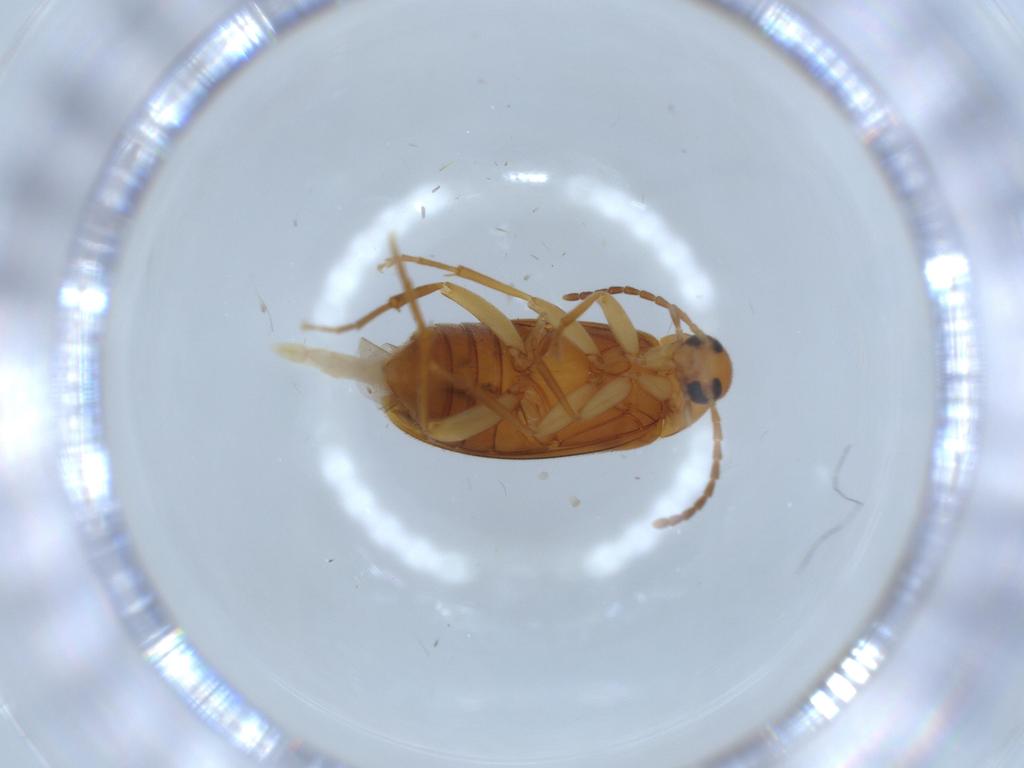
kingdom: Animalia
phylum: Arthropoda
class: Insecta
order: Coleoptera
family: Scraptiidae
